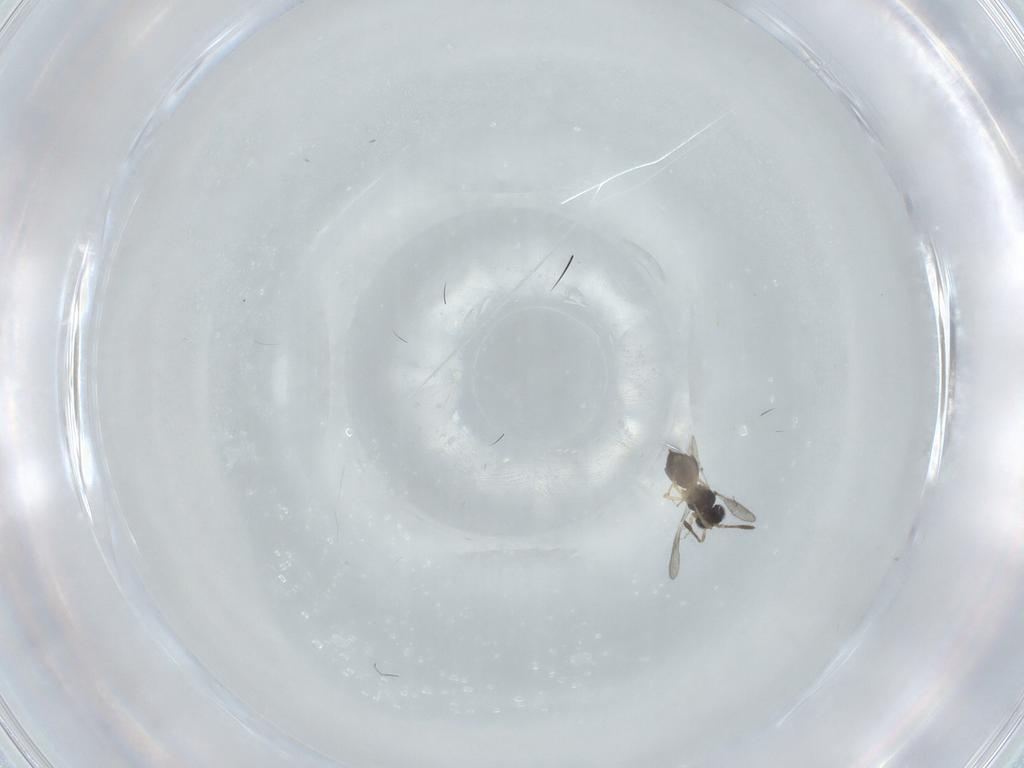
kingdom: Animalia
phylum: Arthropoda
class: Insecta
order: Hymenoptera
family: Scelionidae
